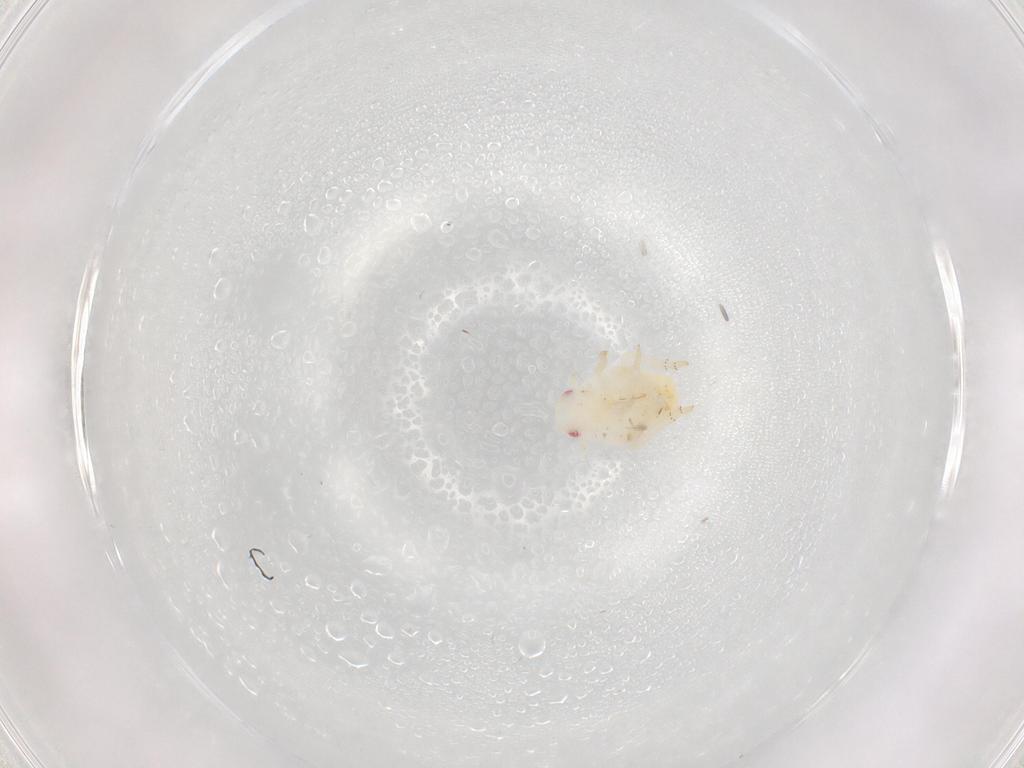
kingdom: Animalia
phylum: Arthropoda
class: Insecta
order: Hemiptera
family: Flatidae
